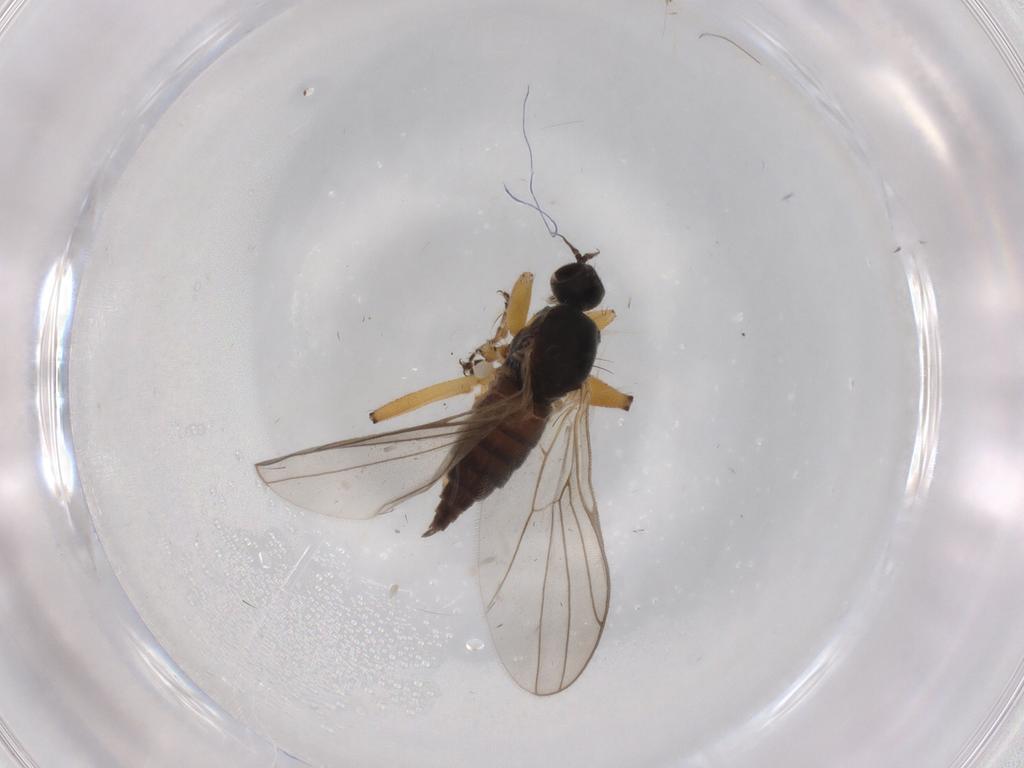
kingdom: Animalia
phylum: Arthropoda
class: Insecta
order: Diptera
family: Hybotidae
